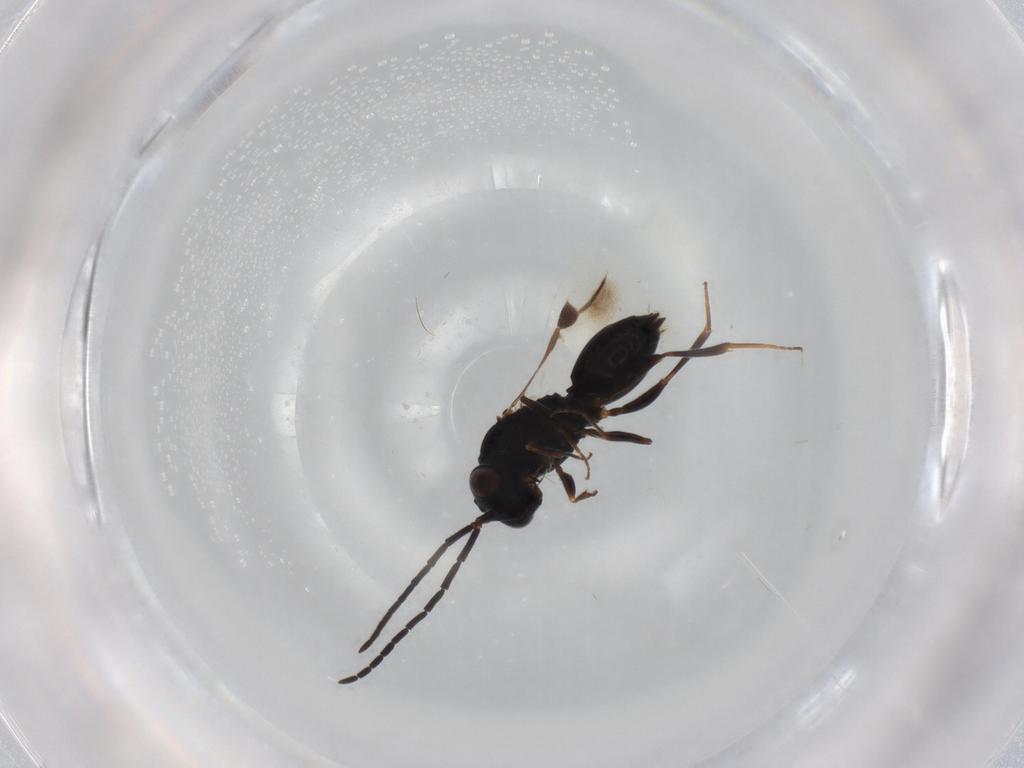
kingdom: Animalia
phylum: Arthropoda
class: Insecta
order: Hymenoptera
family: Megaspilidae
